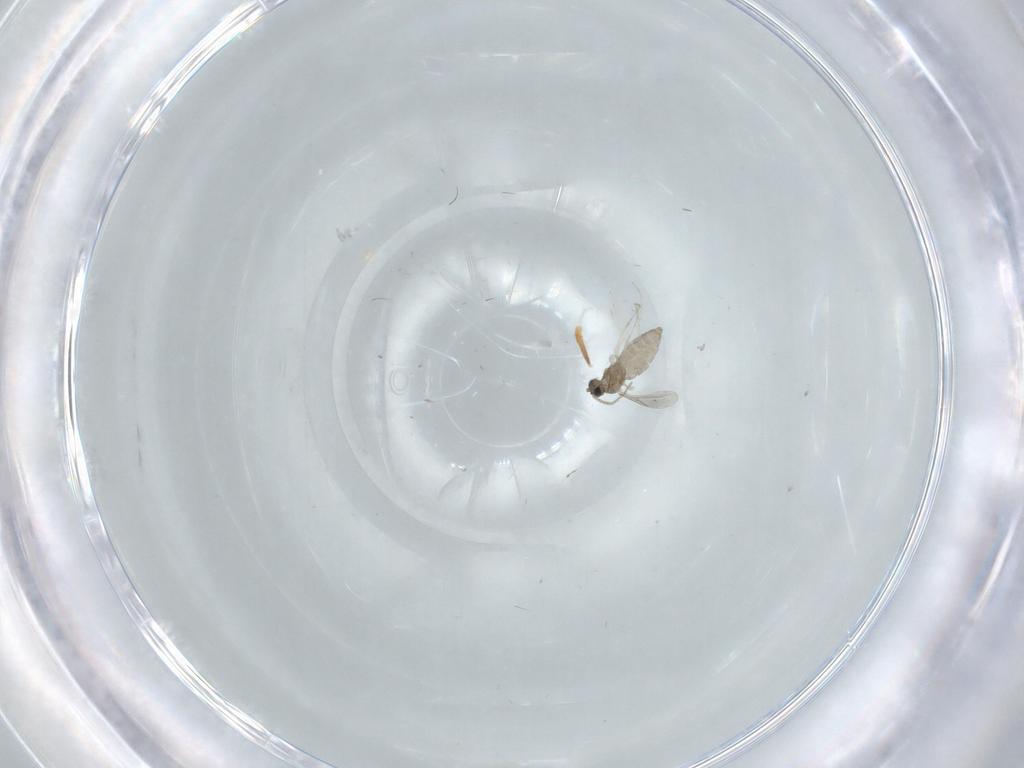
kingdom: Animalia
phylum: Arthropoda
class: Insecta
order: Diptera
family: Cecidomyiidae
